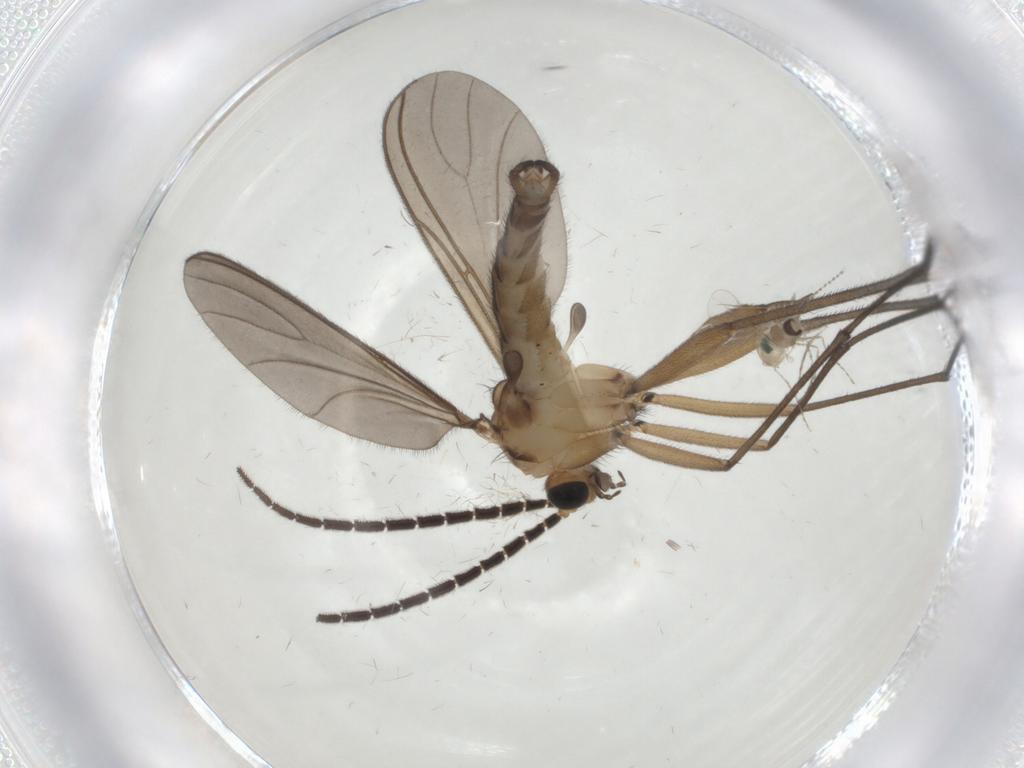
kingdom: Animalia
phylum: Arthropoda
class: Insecta
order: Diptera
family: Sciaridae
